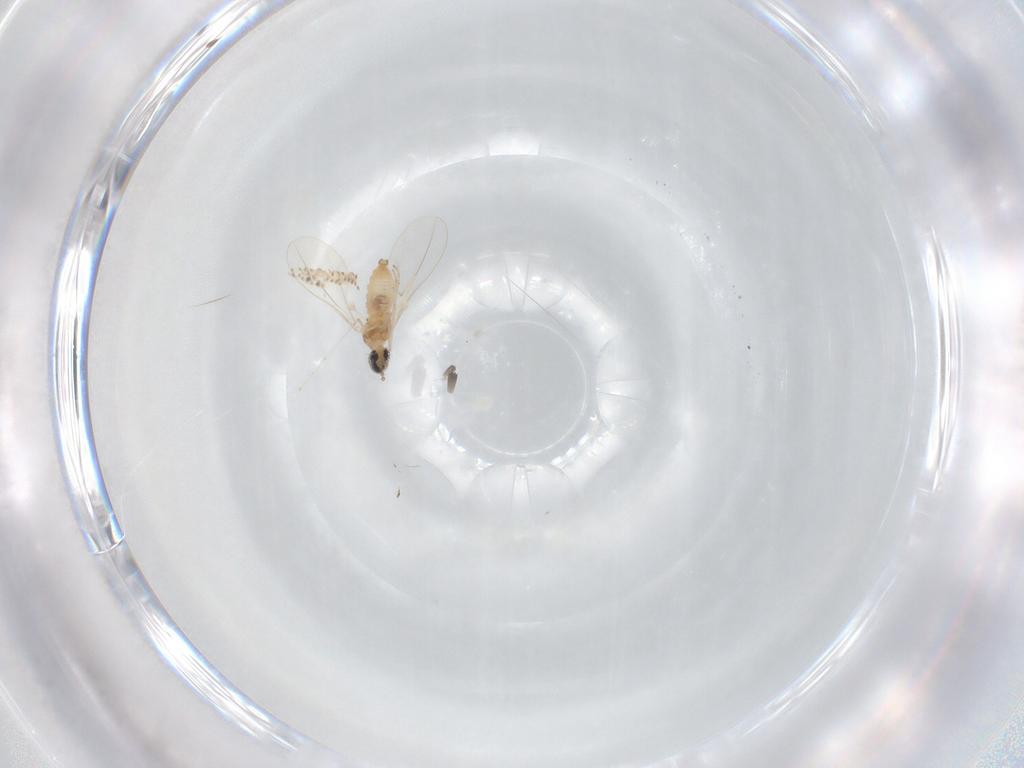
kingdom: Animalia
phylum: Arthropoda
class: Insecta
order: Diptera
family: Cecidomyiidae
